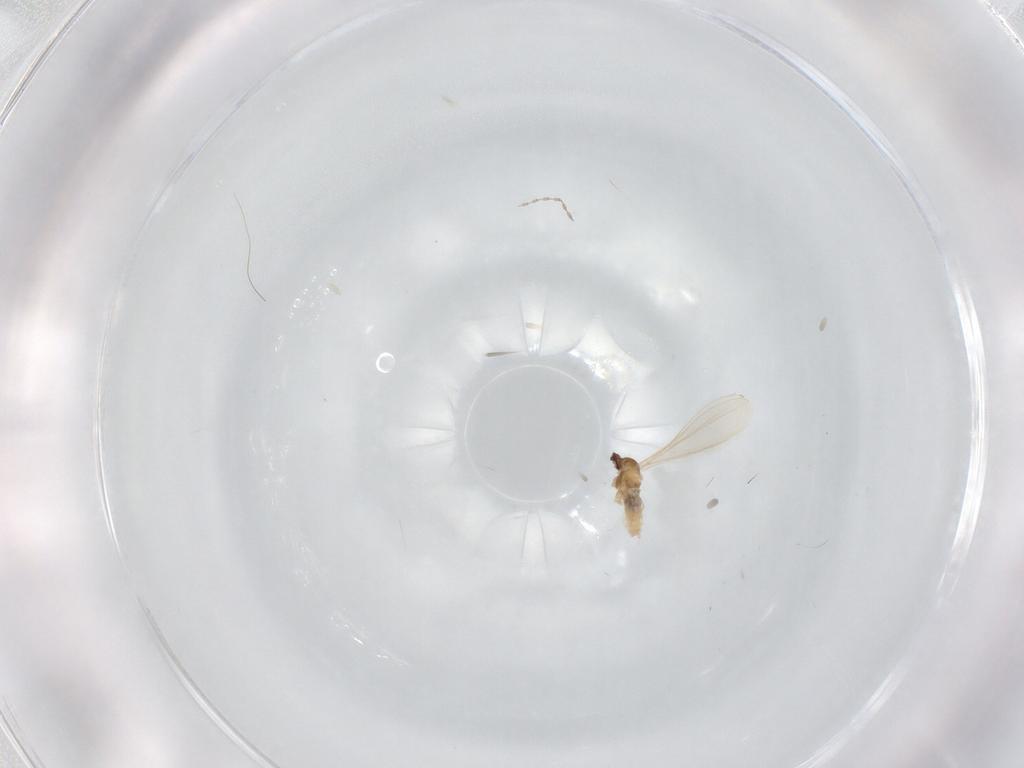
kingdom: Animalia
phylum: Arthropoda
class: Insecta
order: Diptera
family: Cecidomyiidae
